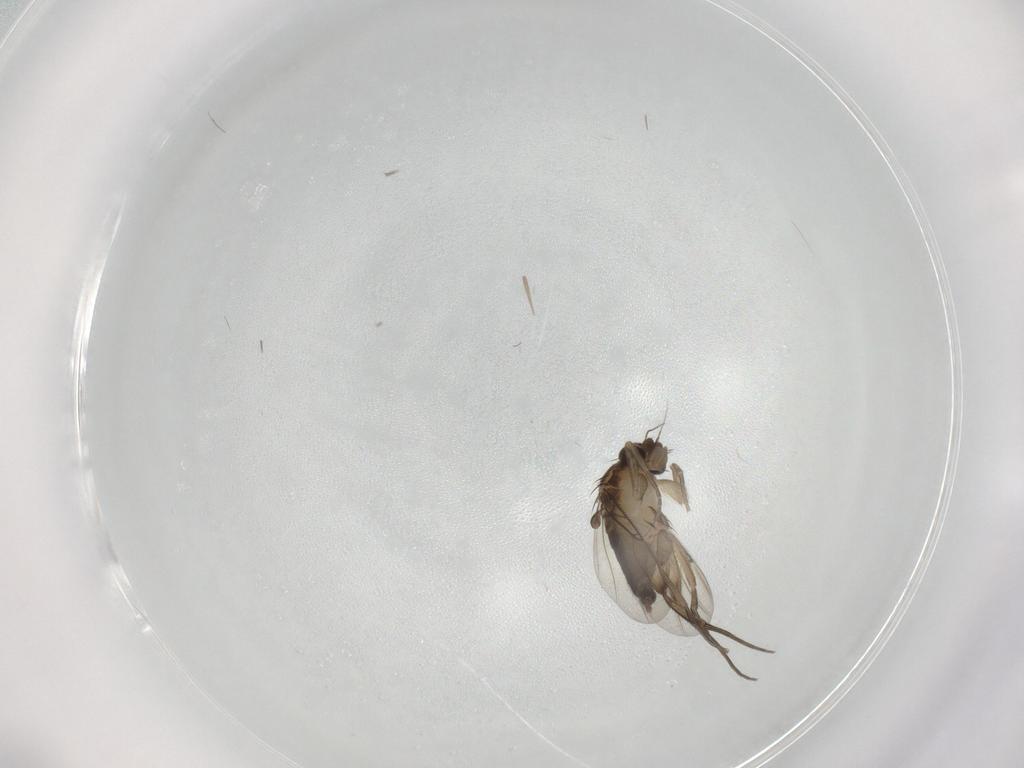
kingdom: Animalia
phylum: Arthropoda
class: Insecta
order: Diptera
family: Phoridae
